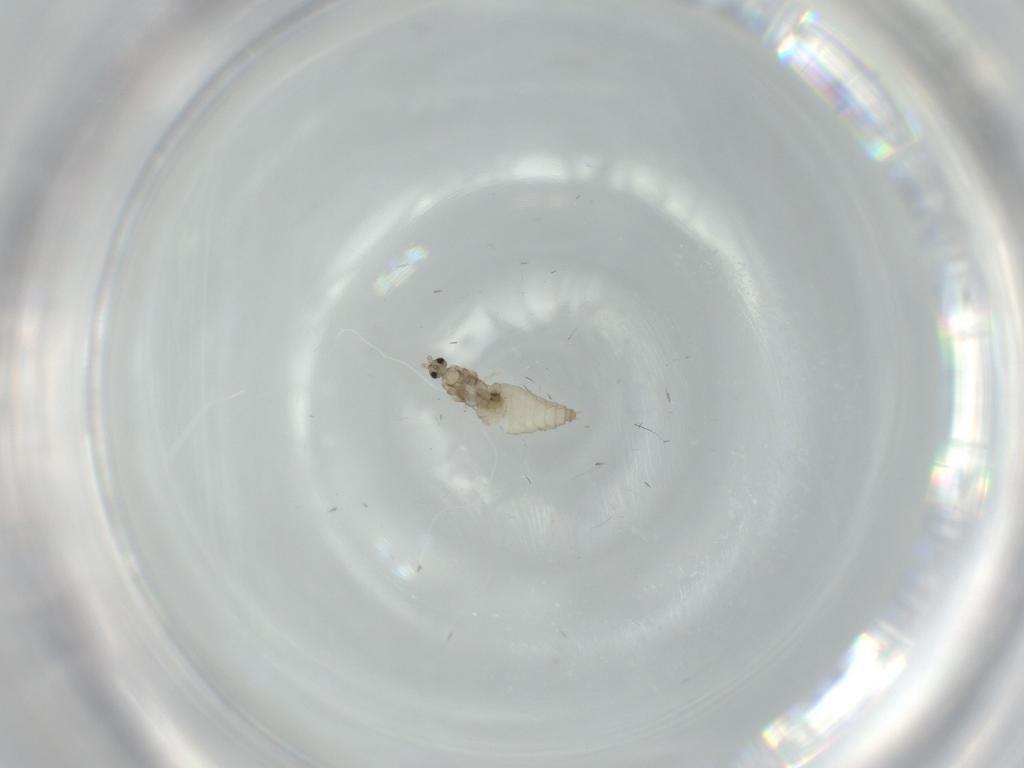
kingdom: Animalia
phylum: Arthropoda
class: Insecta
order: Diptera
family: Cecidomyiidae
